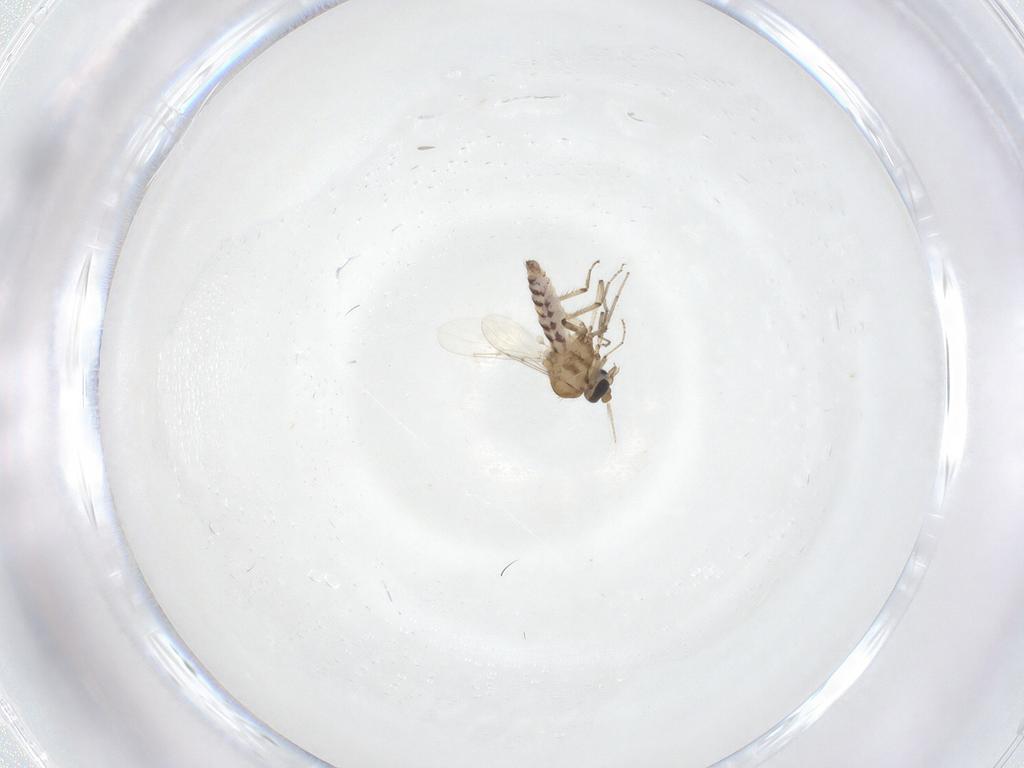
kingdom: Animalia
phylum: Arthropoda
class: Insecta
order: Diptera
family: Ceratopogonidae
